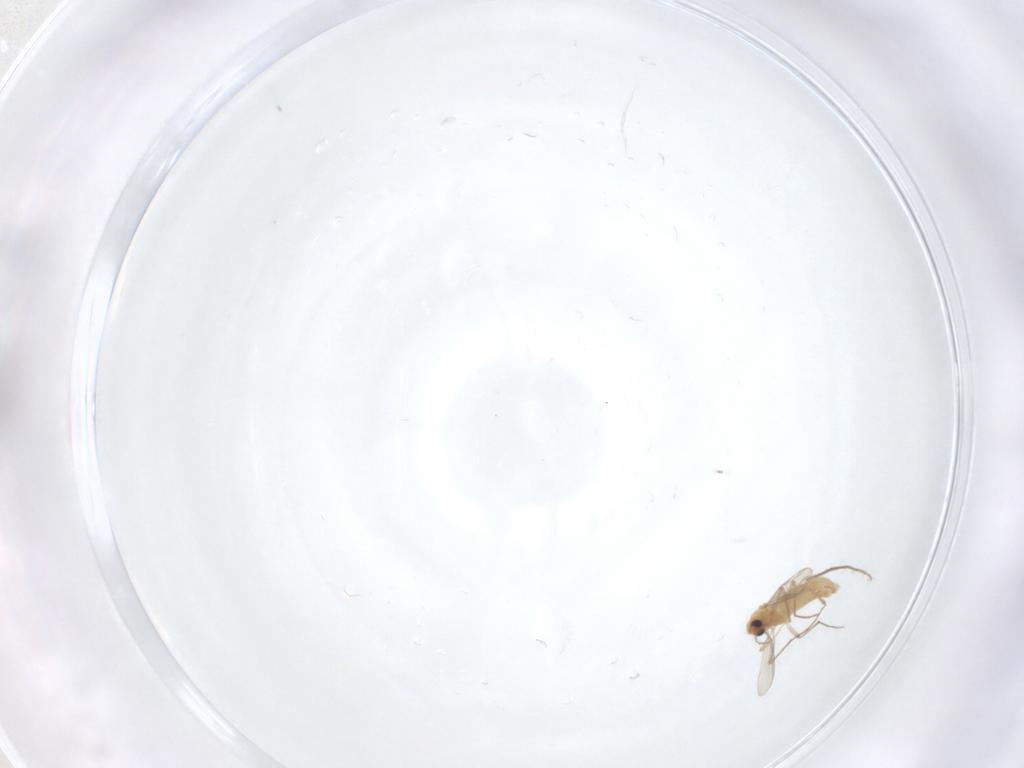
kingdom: Animalia
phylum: Arthropoda
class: Insecta
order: Diptera
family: Chironomidae
